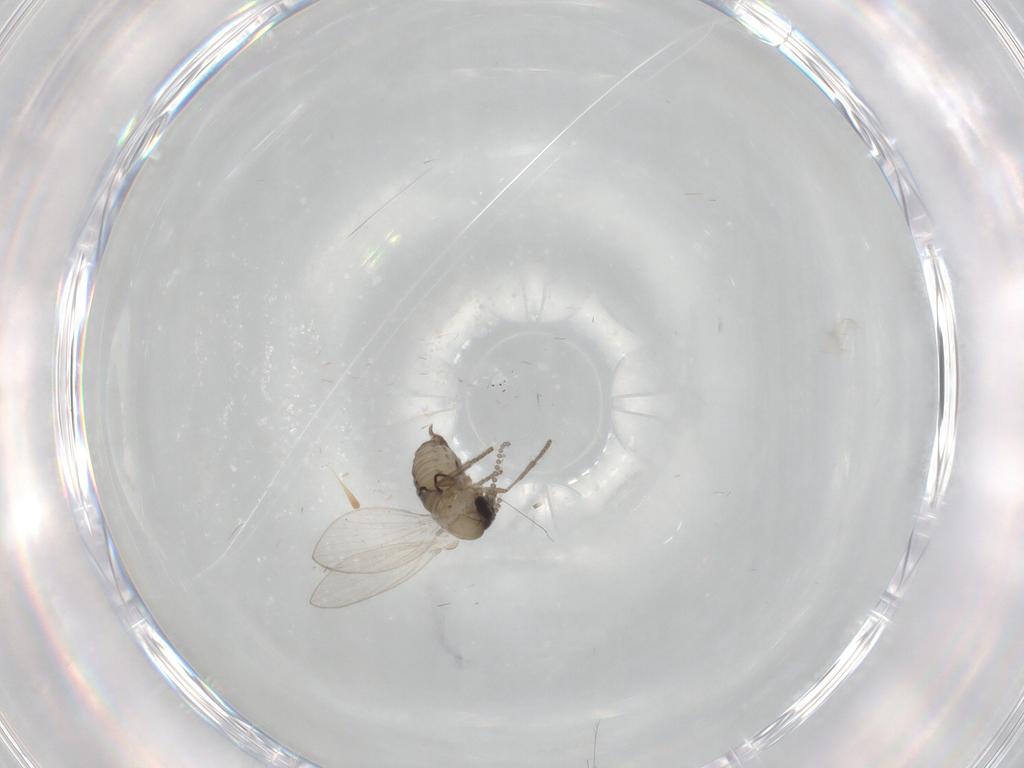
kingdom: Animalia
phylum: Arthropoda
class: Insecta
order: Diptera
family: Psychodidae
